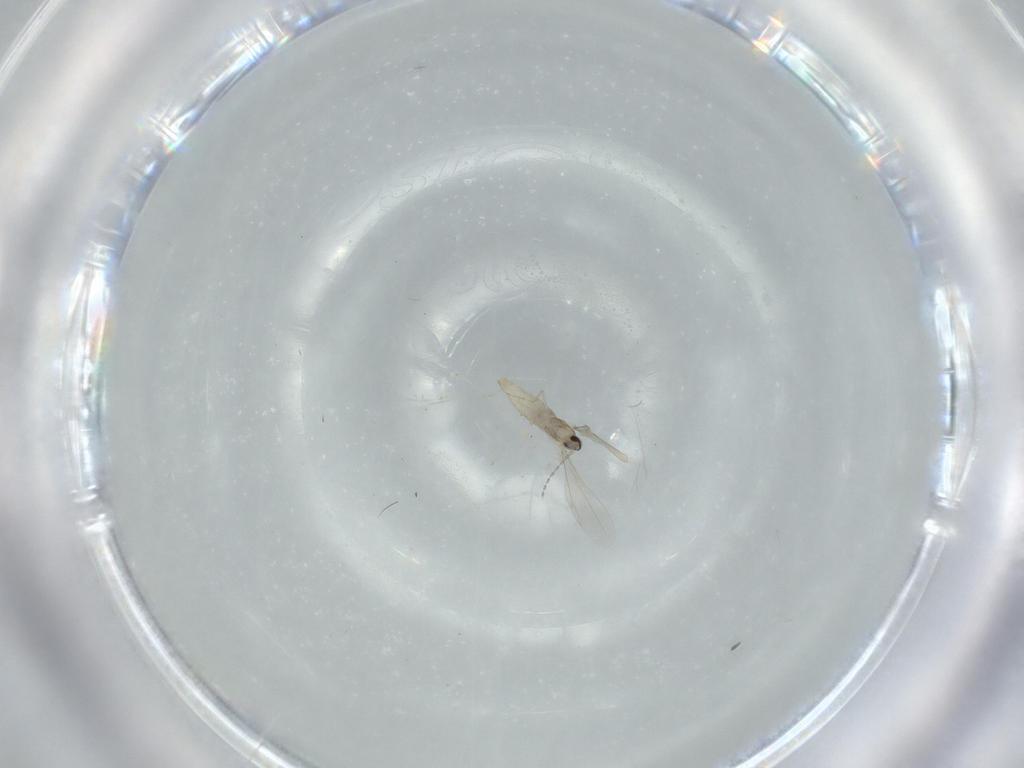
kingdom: Animalia
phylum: Arthropoda
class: Insecta
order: Diptera
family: Cecidomyiidae
